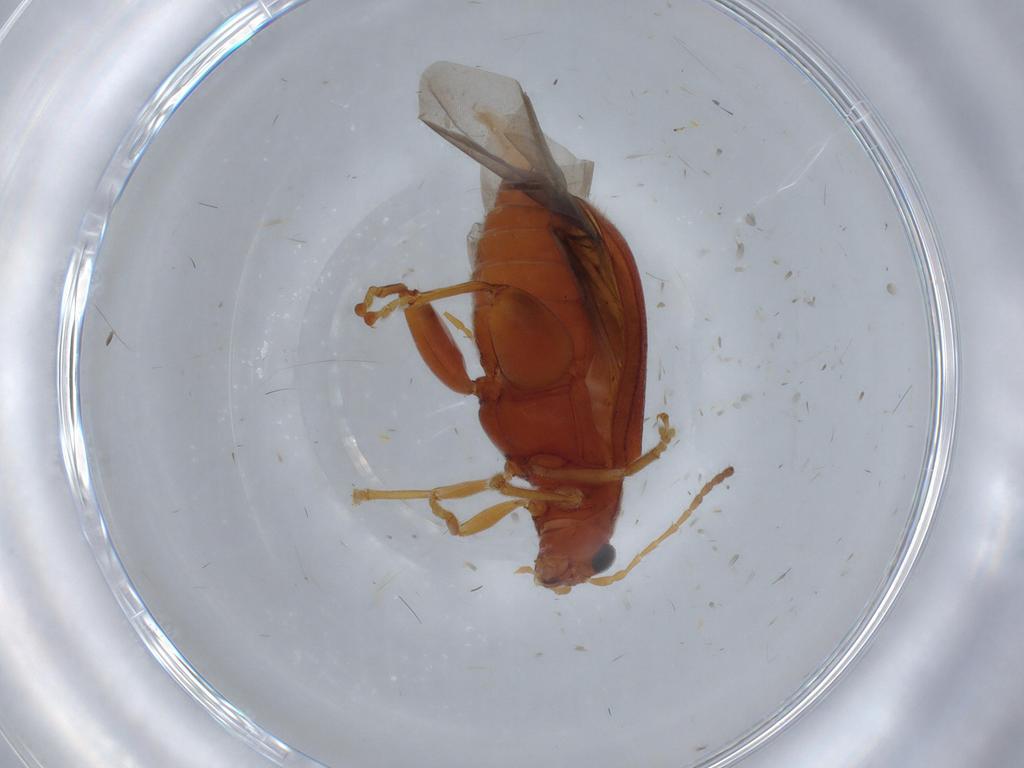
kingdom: Animalia
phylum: Arthropoda
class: Insecta
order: Coleoptera
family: Chrysomelidae
